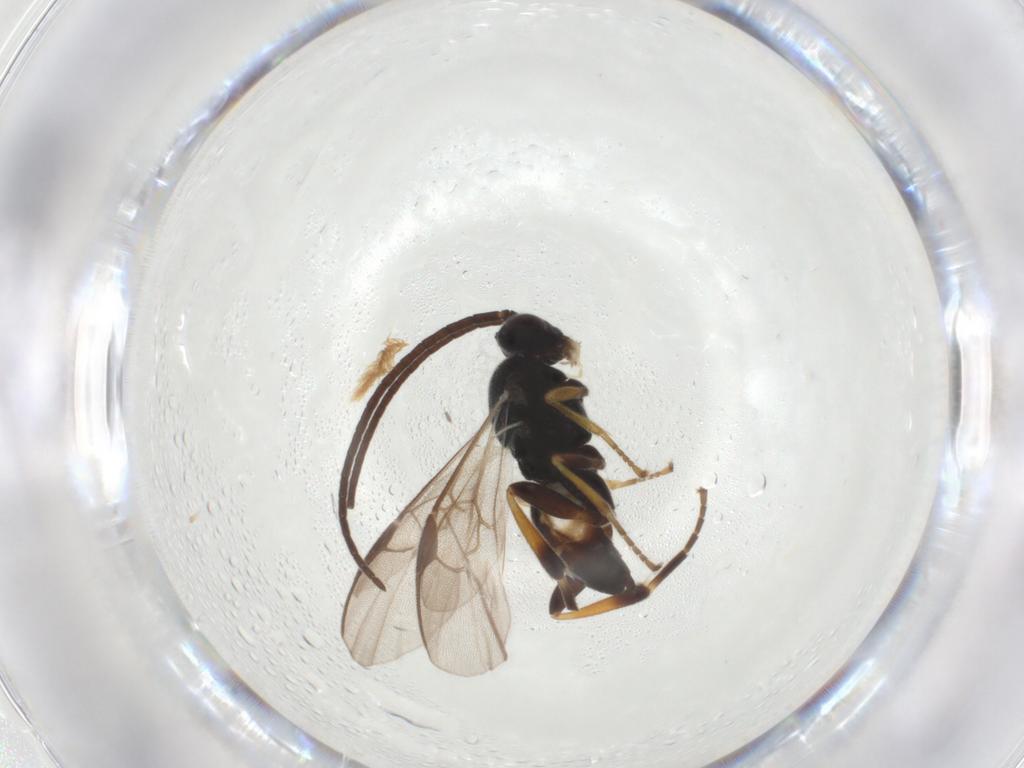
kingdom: Animalia
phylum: Arthropoda
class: Insecta
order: Hymenoptera
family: Braconidae
